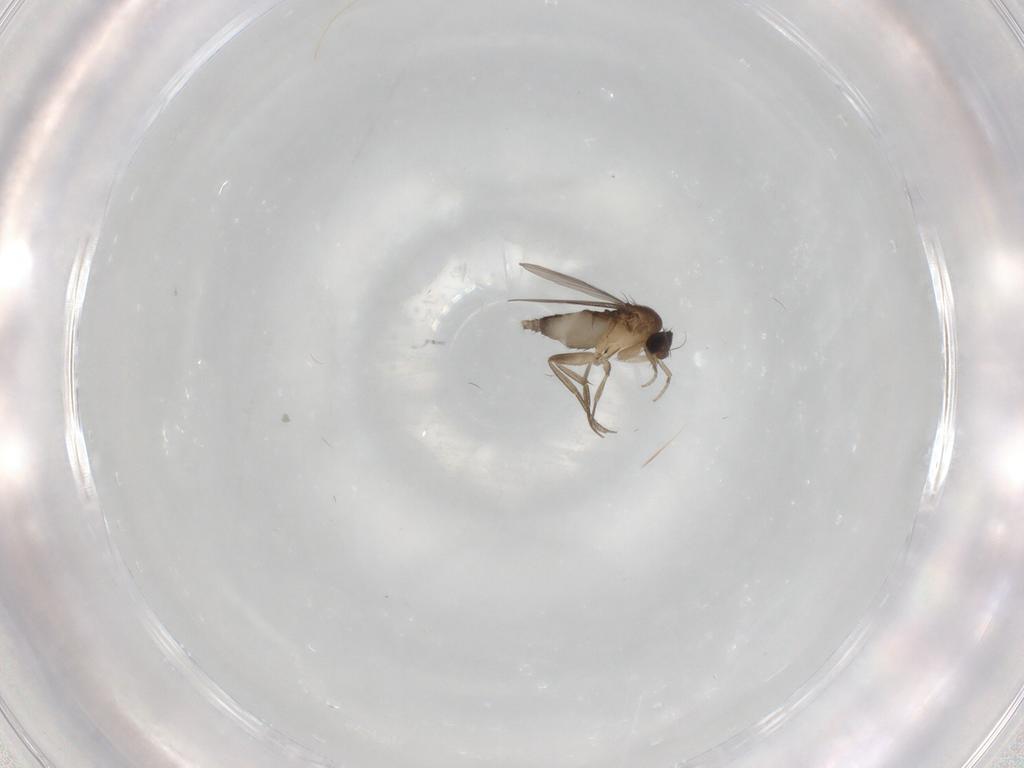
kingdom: Animalia
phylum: Arthropoda
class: Insecta
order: Diptera
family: Phoridae
